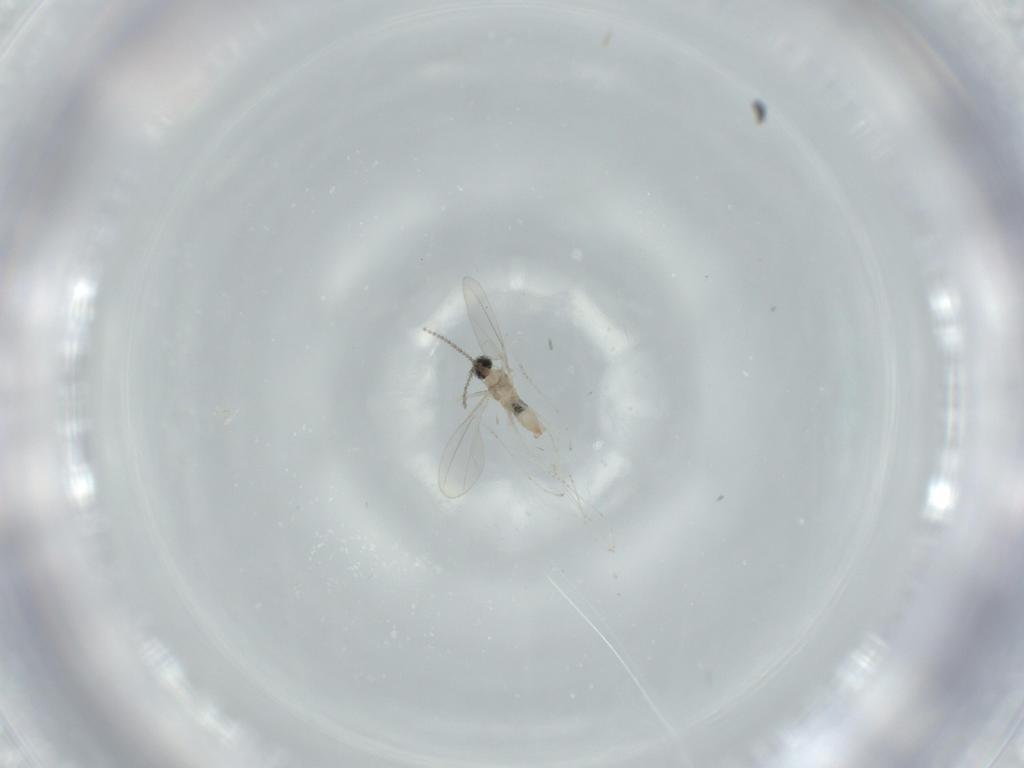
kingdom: Animalia
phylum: Arthropoda
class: Insecta
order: Diptera
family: Cecidomyiidae
